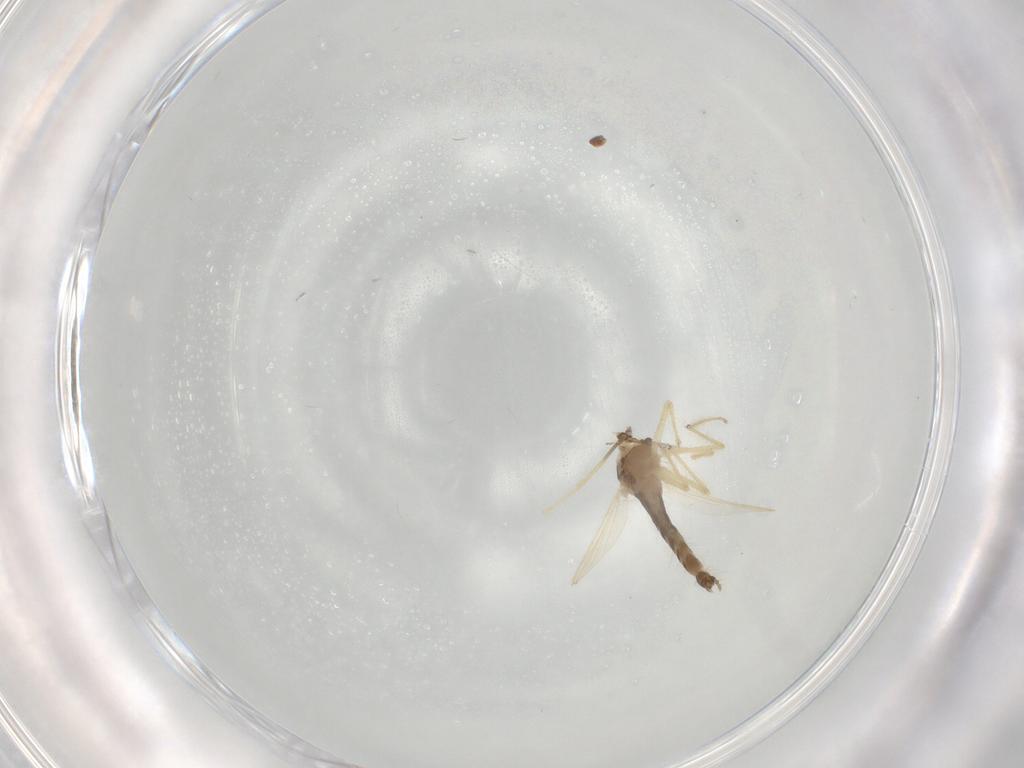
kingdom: Animalia
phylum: Arthropoda
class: Insecta
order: Diptera
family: Chironomidae
